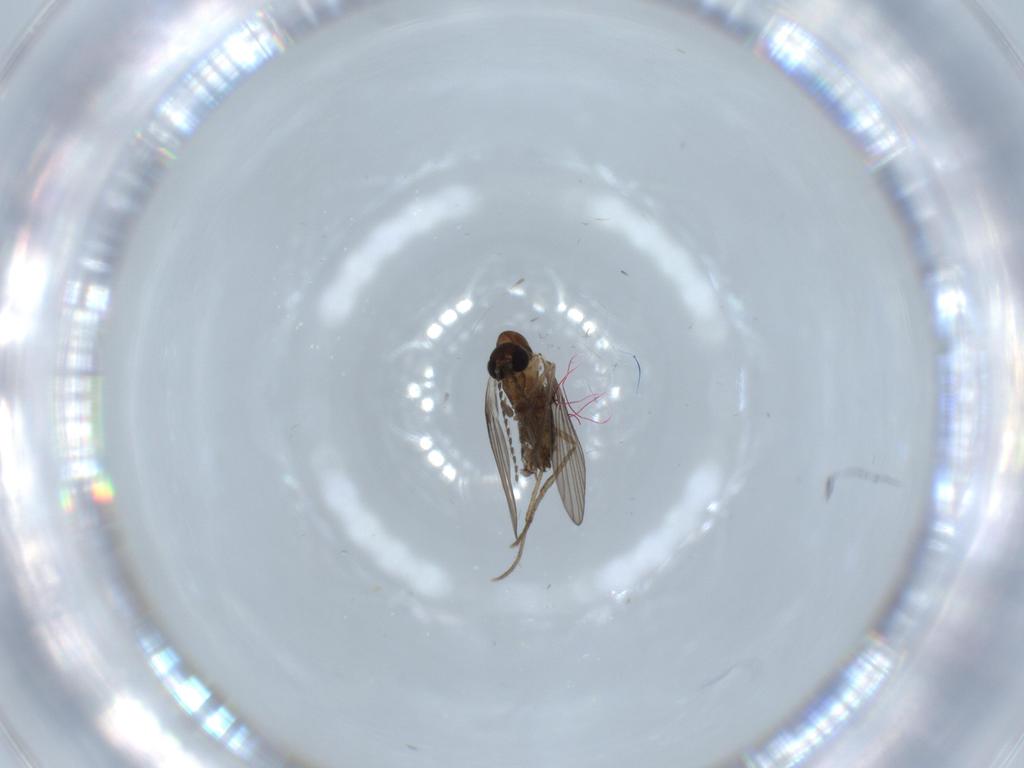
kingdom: Animalia
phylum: Arthropoda
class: Insecta
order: Diptera
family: Psychodidae
